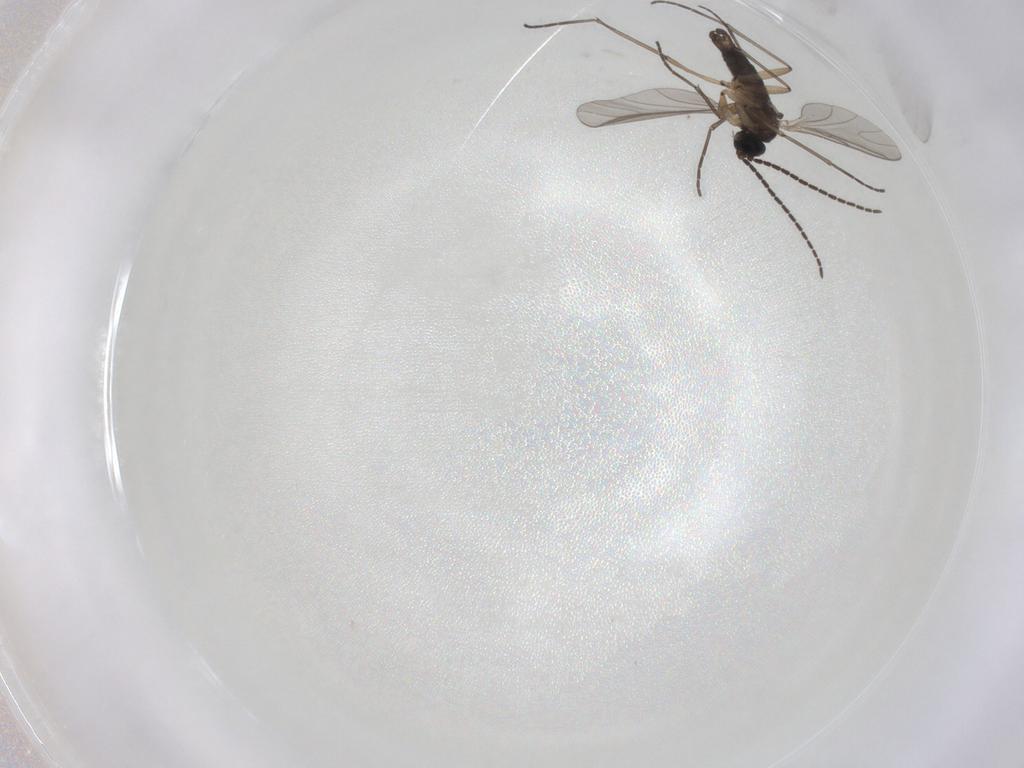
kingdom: Animalia
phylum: Arthropoda
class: Insecta
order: Diptera
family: Sciaridae
